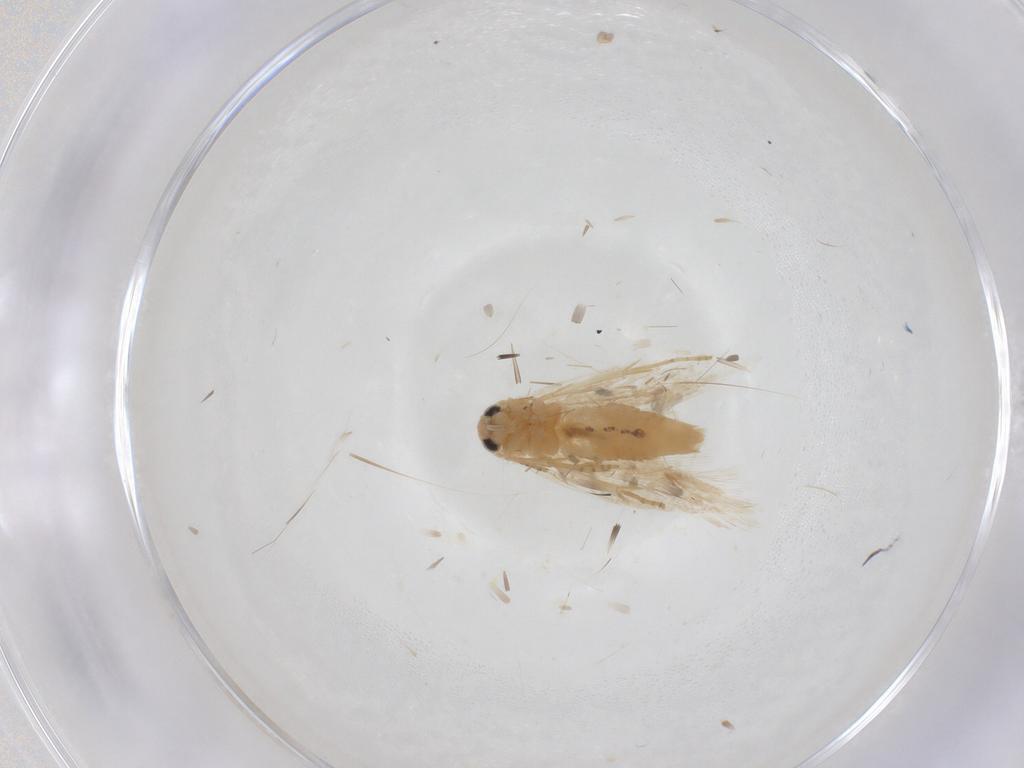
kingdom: Animalia
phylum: Arthropoda
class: Insecta
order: Lepidoptera
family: Depressariidae
